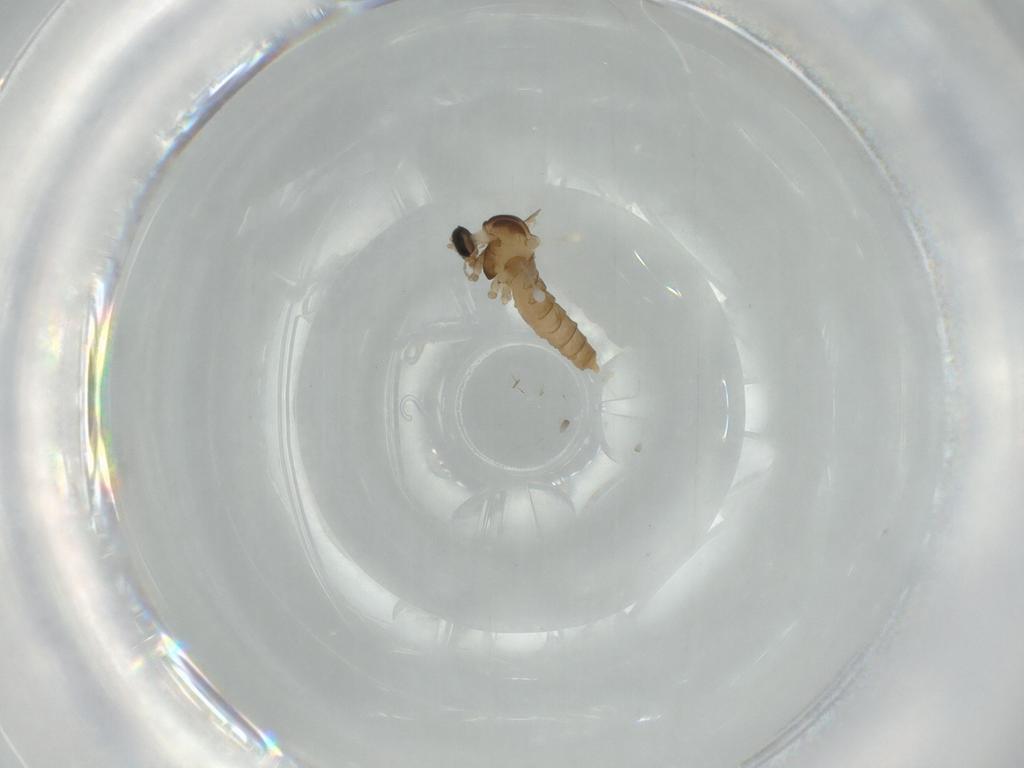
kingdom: Animalia
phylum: Arthropoda
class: Insecta
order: Diptera
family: Cecidomyiidae
